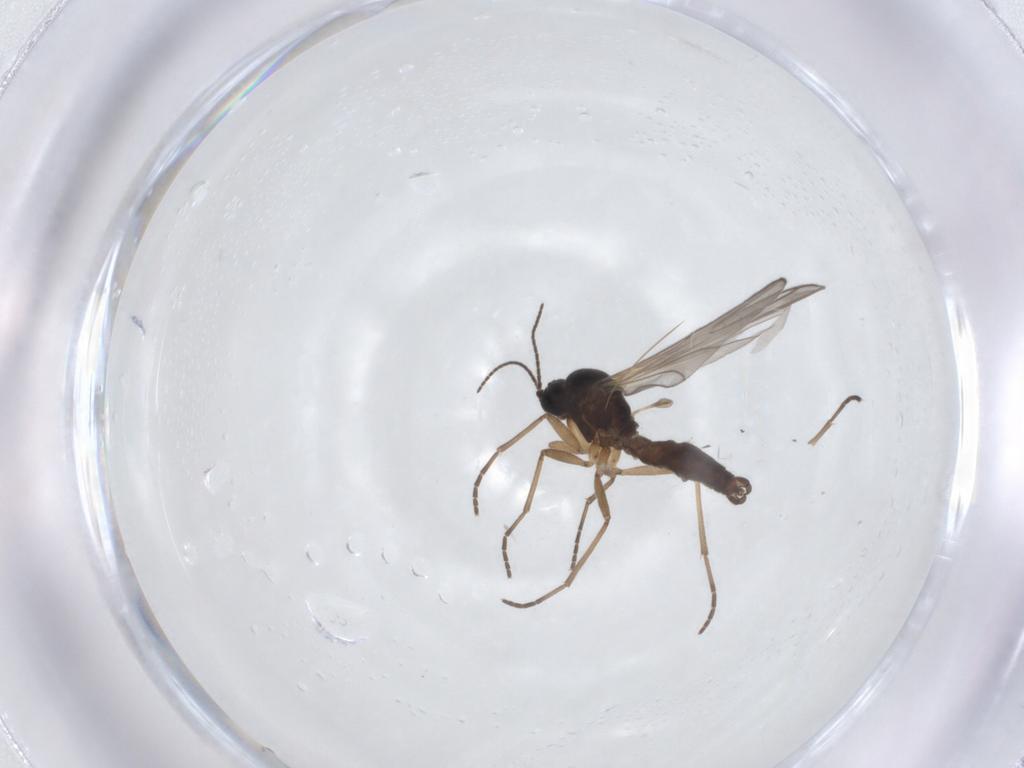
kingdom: Animalia
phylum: Arthropoda
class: Insecta
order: Diptera
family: Sciaridae
